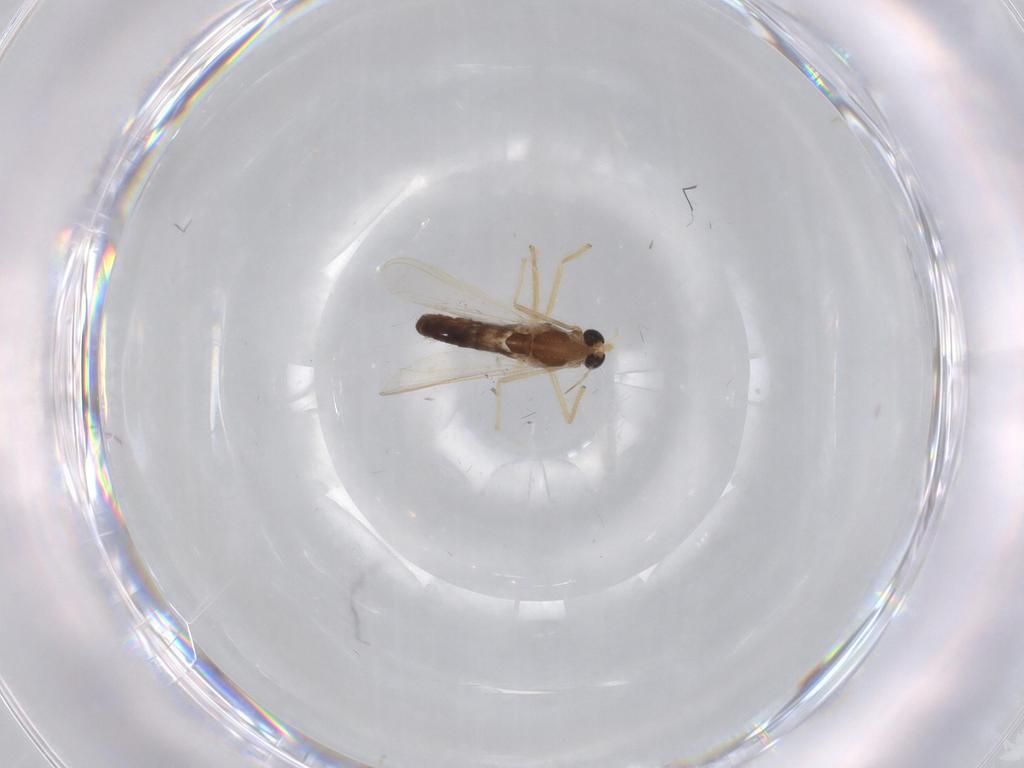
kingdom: Animalia
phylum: Arthropoda
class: Insecta
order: Diptera
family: Chironomidae
